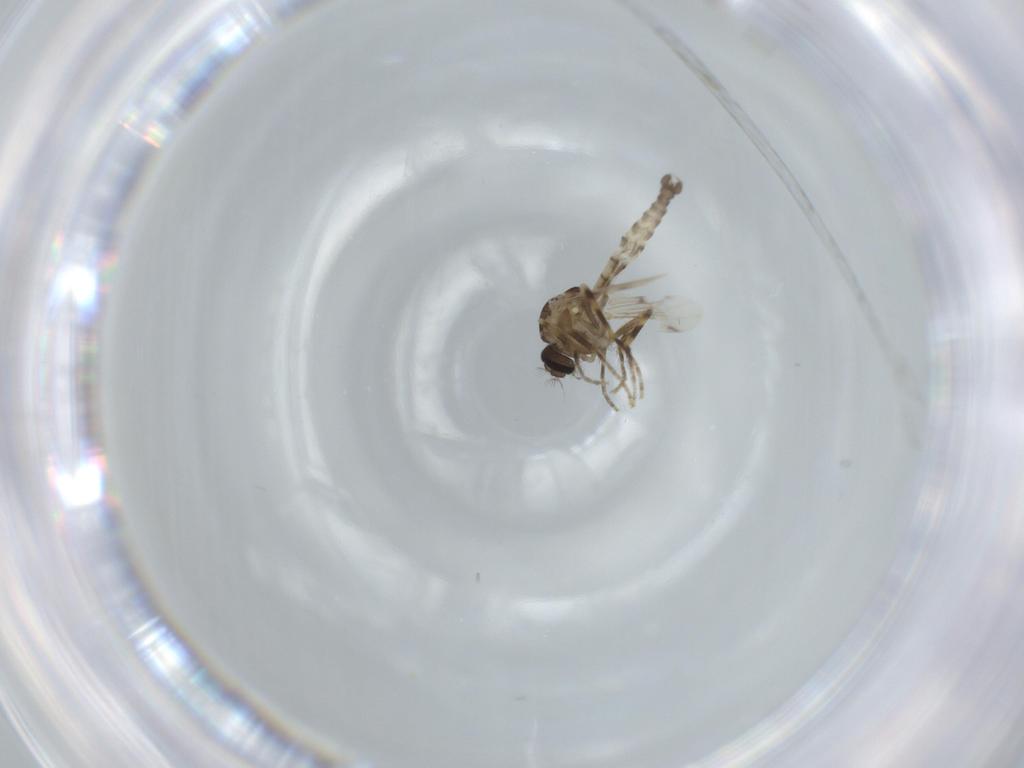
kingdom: Animalia
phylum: Arthropoda
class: Insecta
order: Diptera
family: Ceratopogonidae
